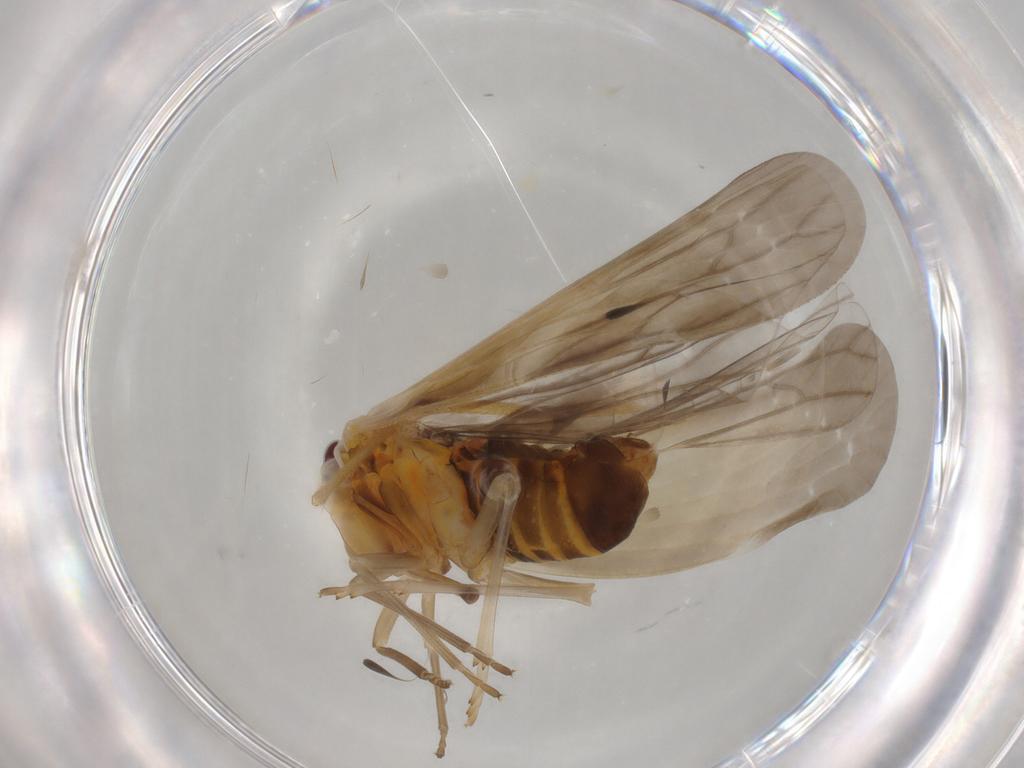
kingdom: Animalia
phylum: Arthropoda
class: Insecta
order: Hemiptera
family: Derbidae
